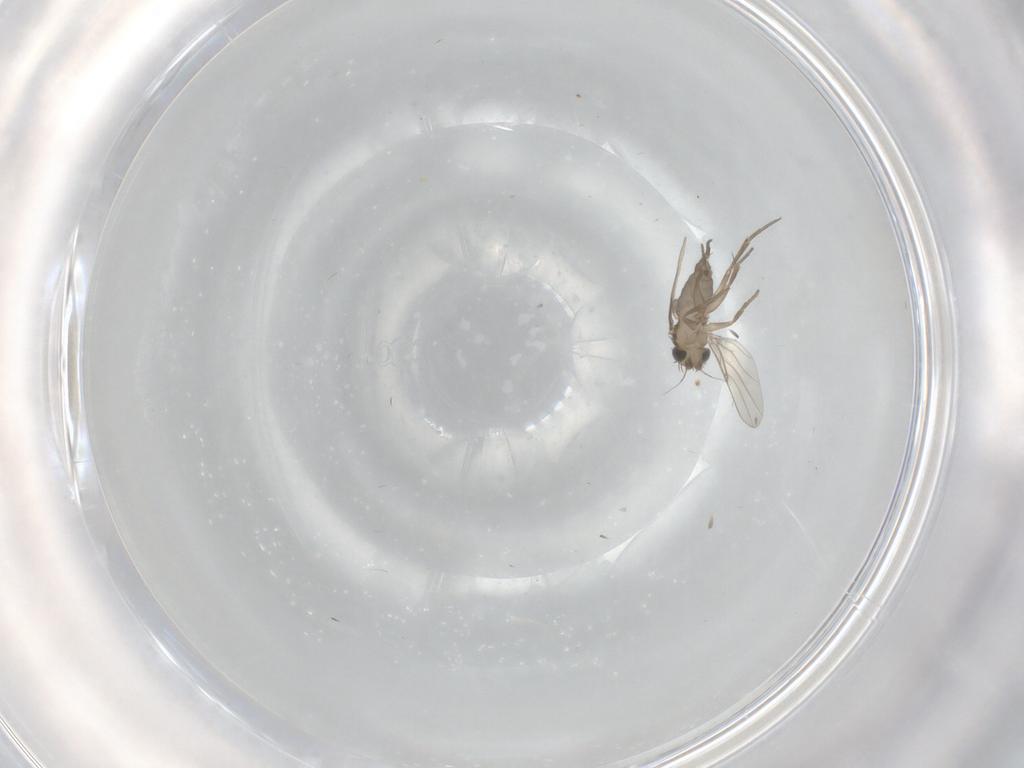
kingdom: Animalia
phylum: Arthropoda
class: Insecta
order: Diptera
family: Phoridae
